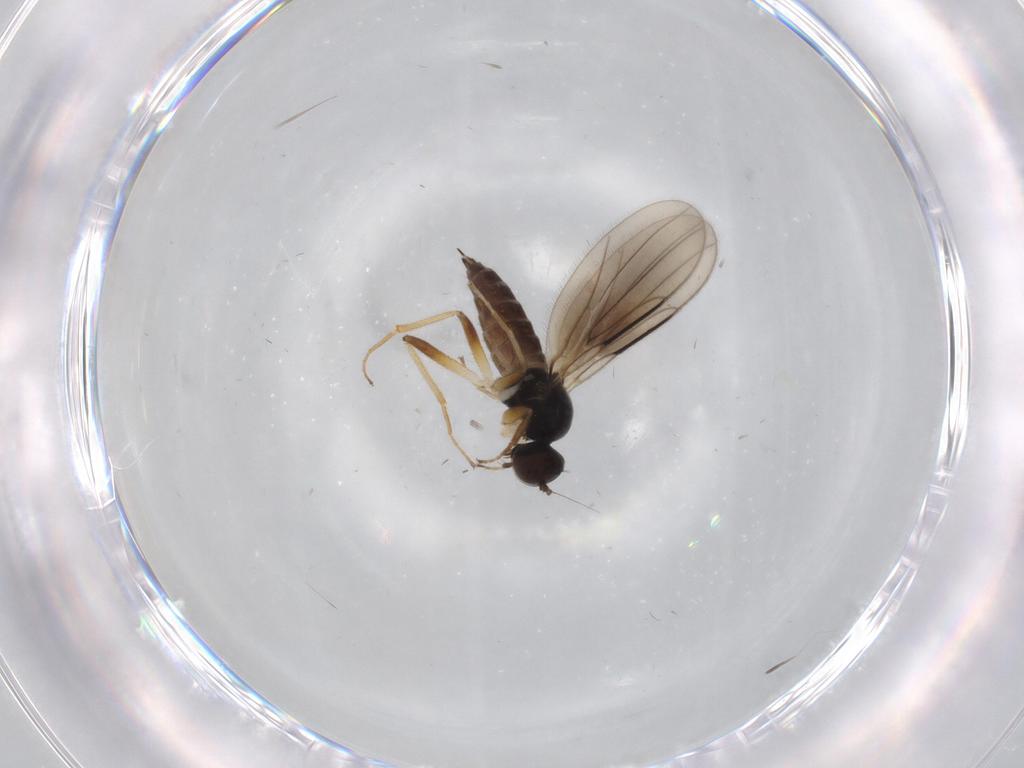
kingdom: Animalia
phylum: Arthropoda
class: Insecta
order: Diptera
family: Hybotidae
